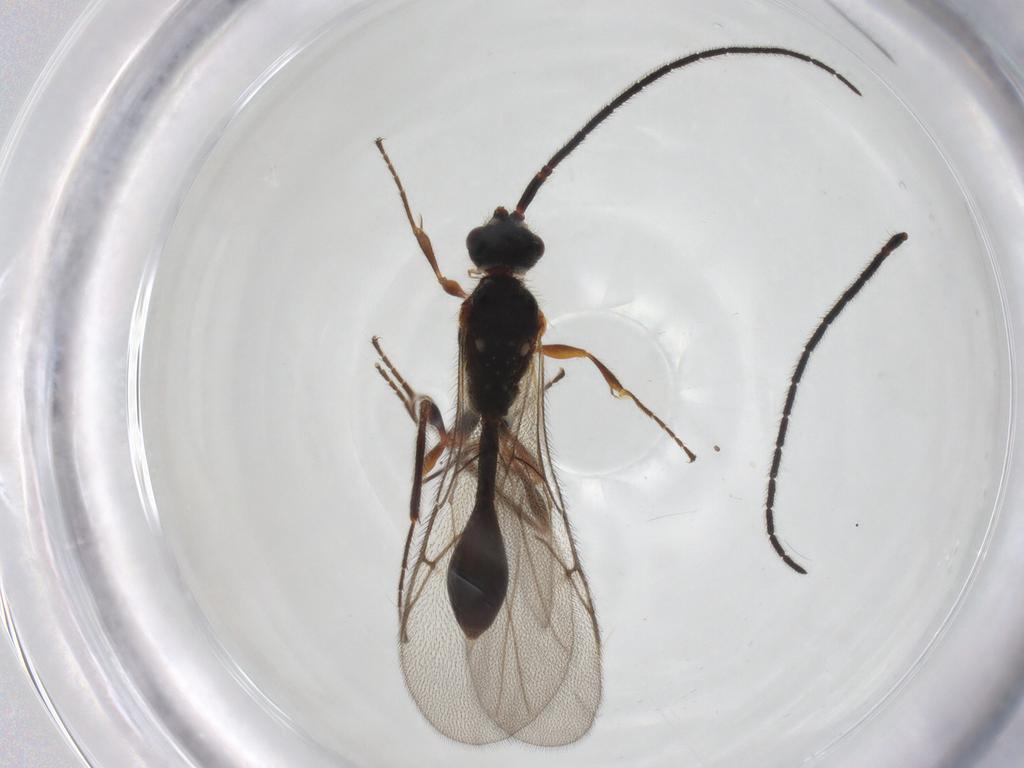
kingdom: Animalia
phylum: Arthropoda
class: Insecta
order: Hymenoptera
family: Diapriidae
